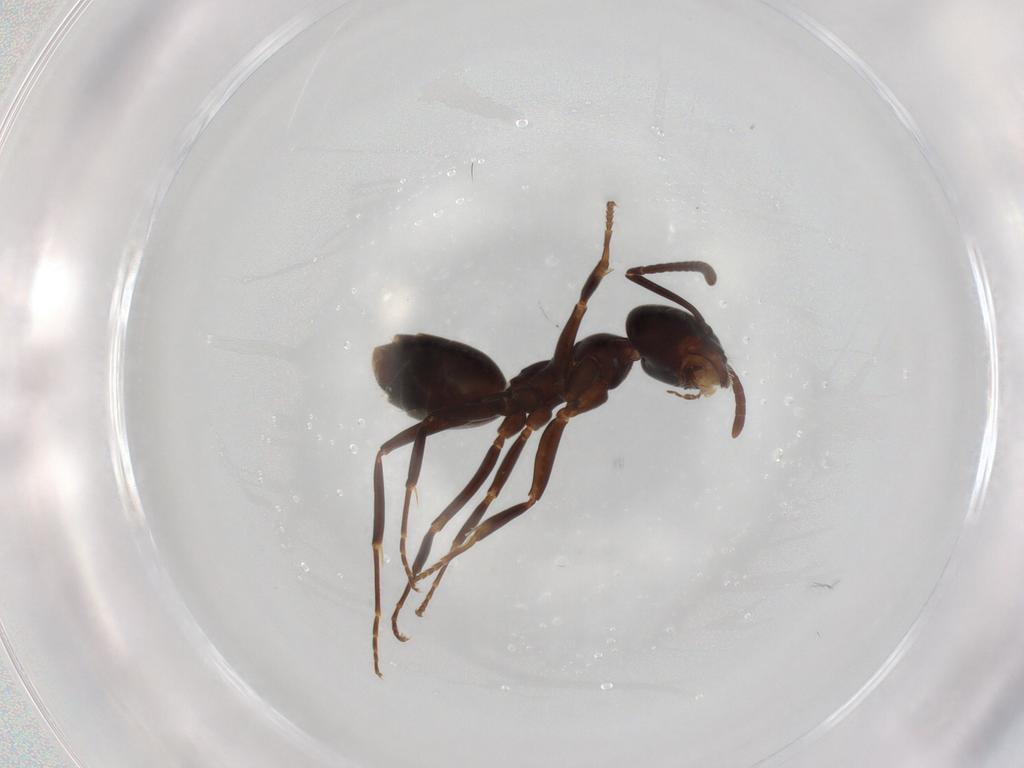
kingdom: Animalia
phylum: Arthropoda
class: Insecta
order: Hymenoptera
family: Formicidae
